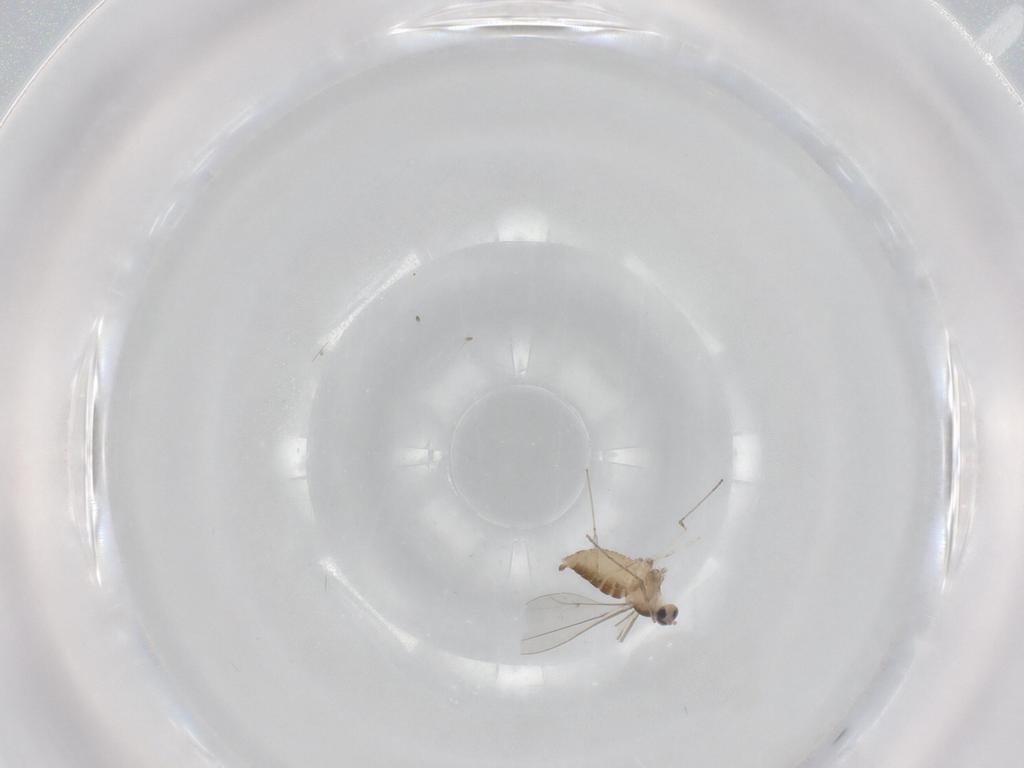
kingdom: Animalia
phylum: Arthropoda
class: Insecta
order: Diptera
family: Cecidomyiidae
